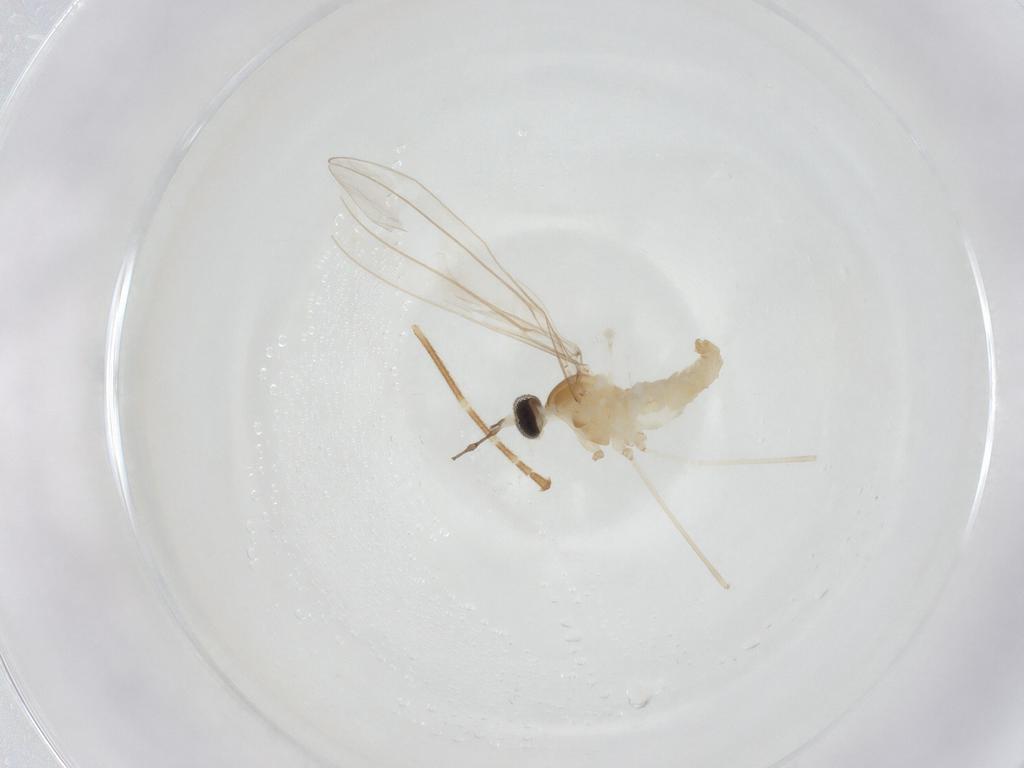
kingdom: Animalia
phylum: Arthropoda
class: Insecta
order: Diptera
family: Cecidomyiidae
